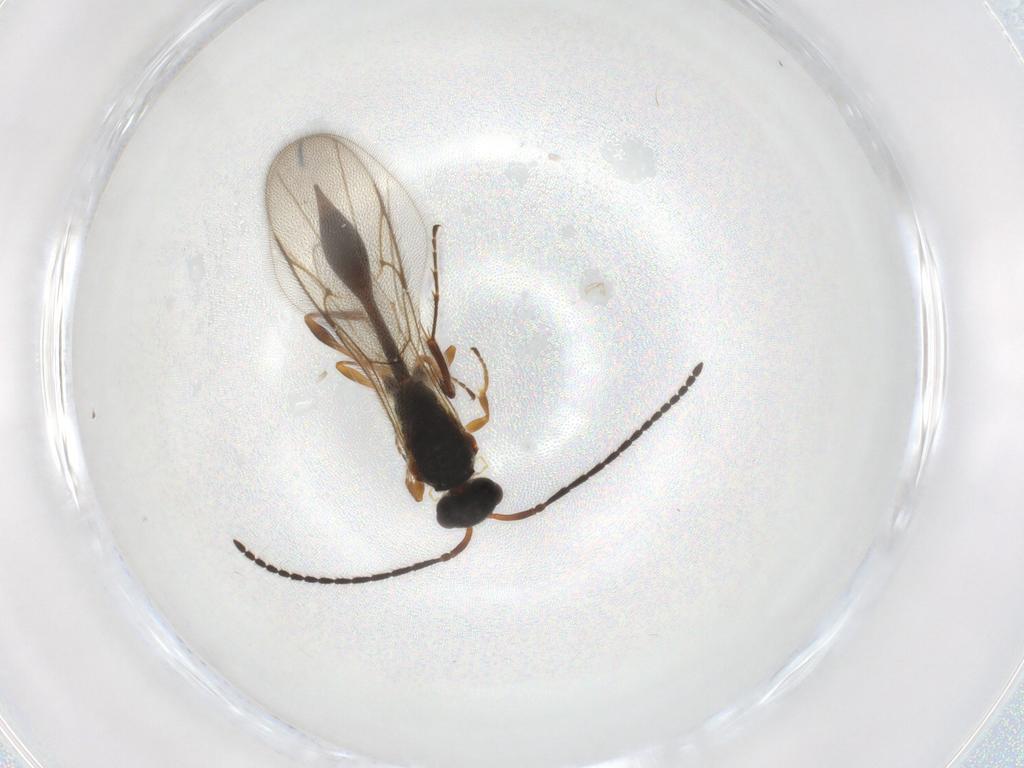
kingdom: Animalia
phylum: Arthropoda
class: Insecta
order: Hymenoptera
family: Diapriidae
